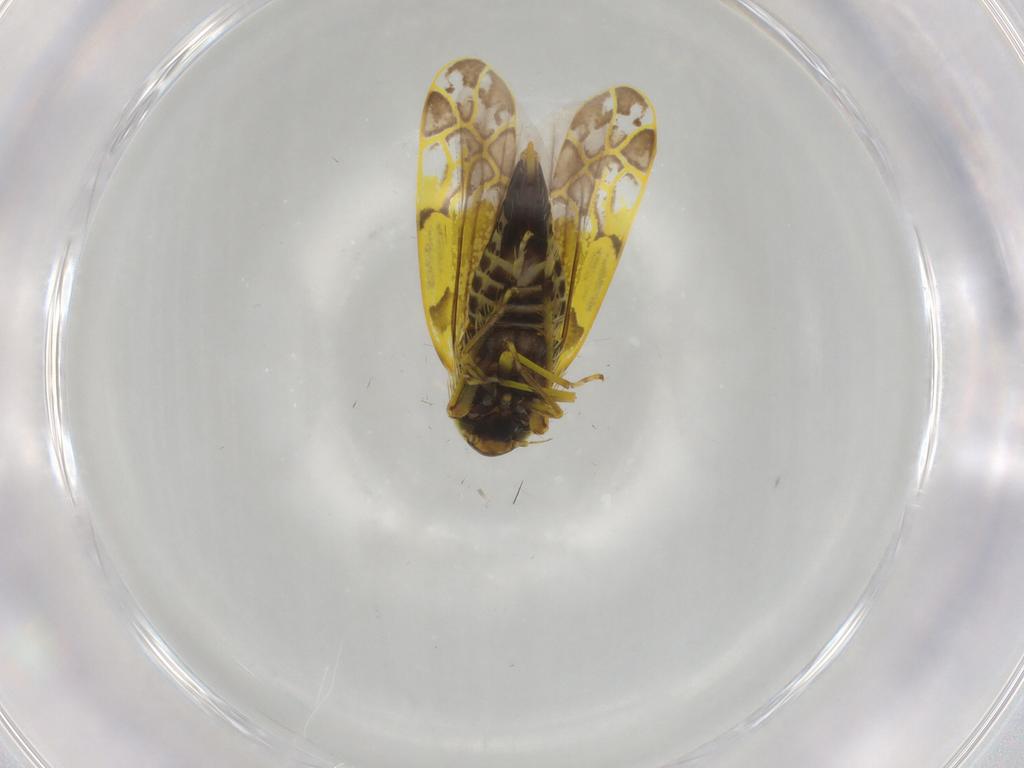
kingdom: Animalia
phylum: Arthropoda
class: Insecta
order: Hemiptera
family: Cicadellidae
